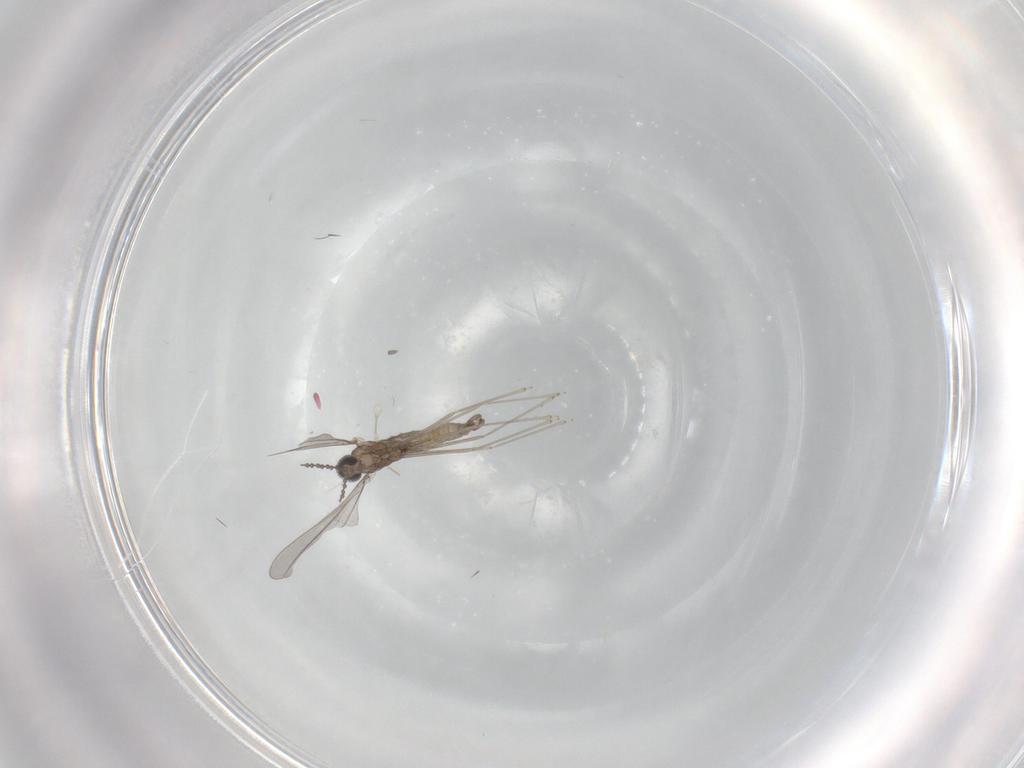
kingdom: Animalia
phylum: Arthropoda
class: Insecta
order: Diptera
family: Cecidomyiidae
